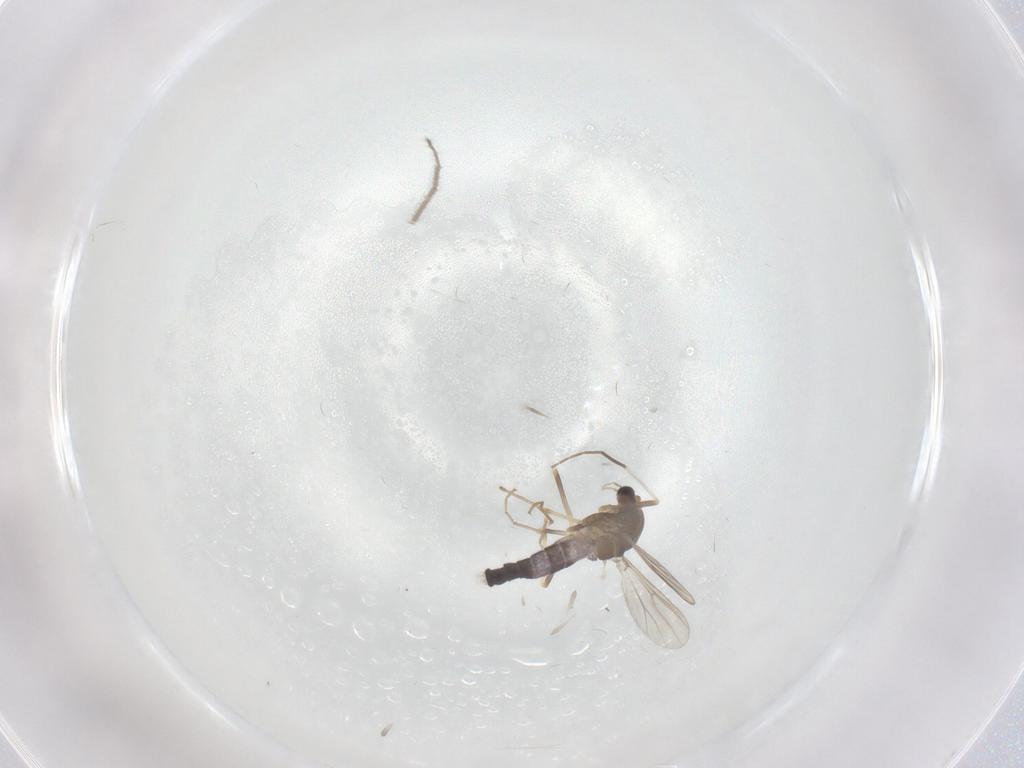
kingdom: Animalia
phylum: Arthropoda
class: Insecta
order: Diptera
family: Chironomidae
